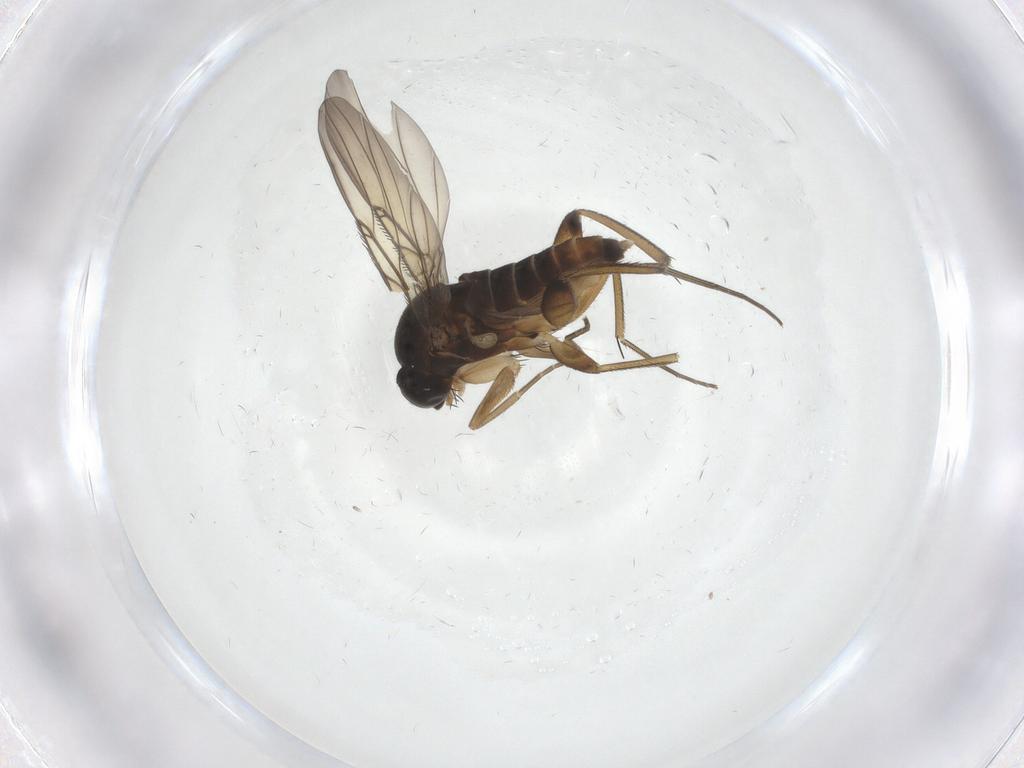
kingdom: Animalia
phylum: Arthropoda
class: Insecta
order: Diptera
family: Phoridae
